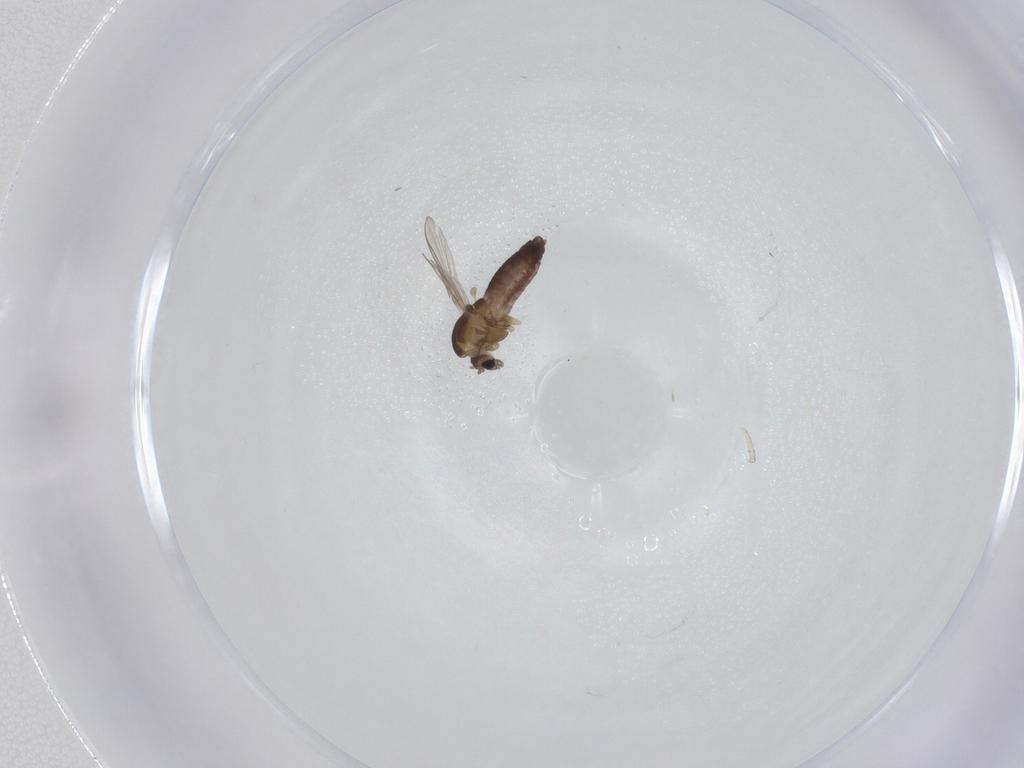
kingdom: Animalia
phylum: Arthropoda
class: Insecta
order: Diptera
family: Chironomidae
